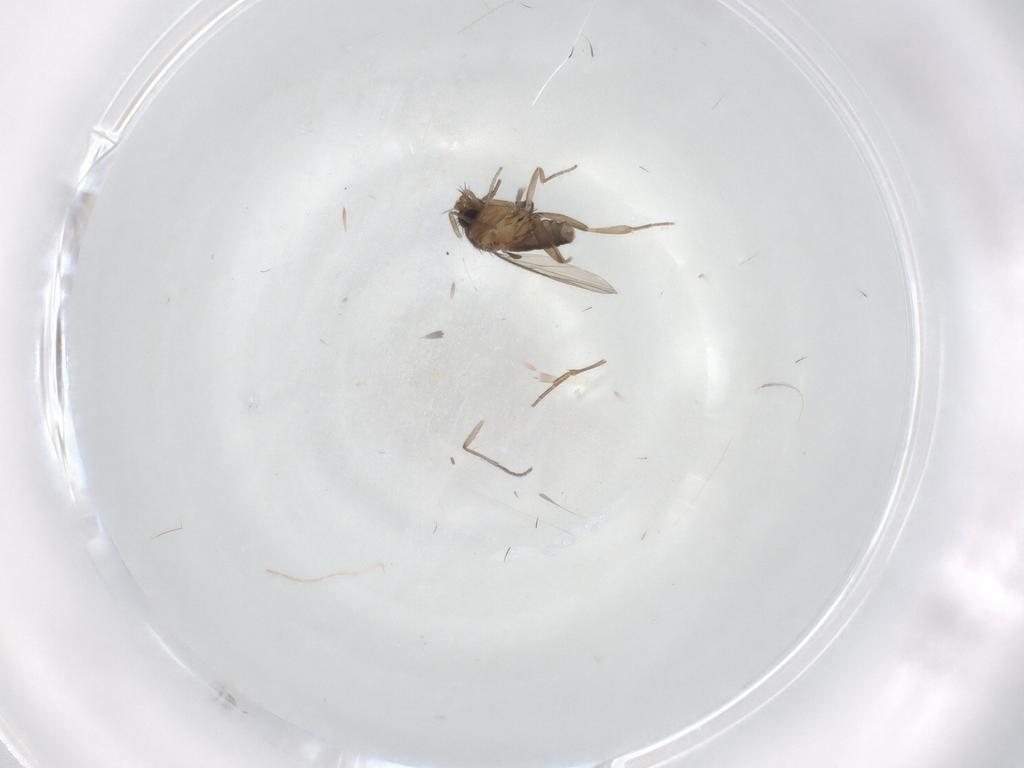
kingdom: Animalia
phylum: Arthropoda
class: Insecta
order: Diptera
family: Sciaridae
